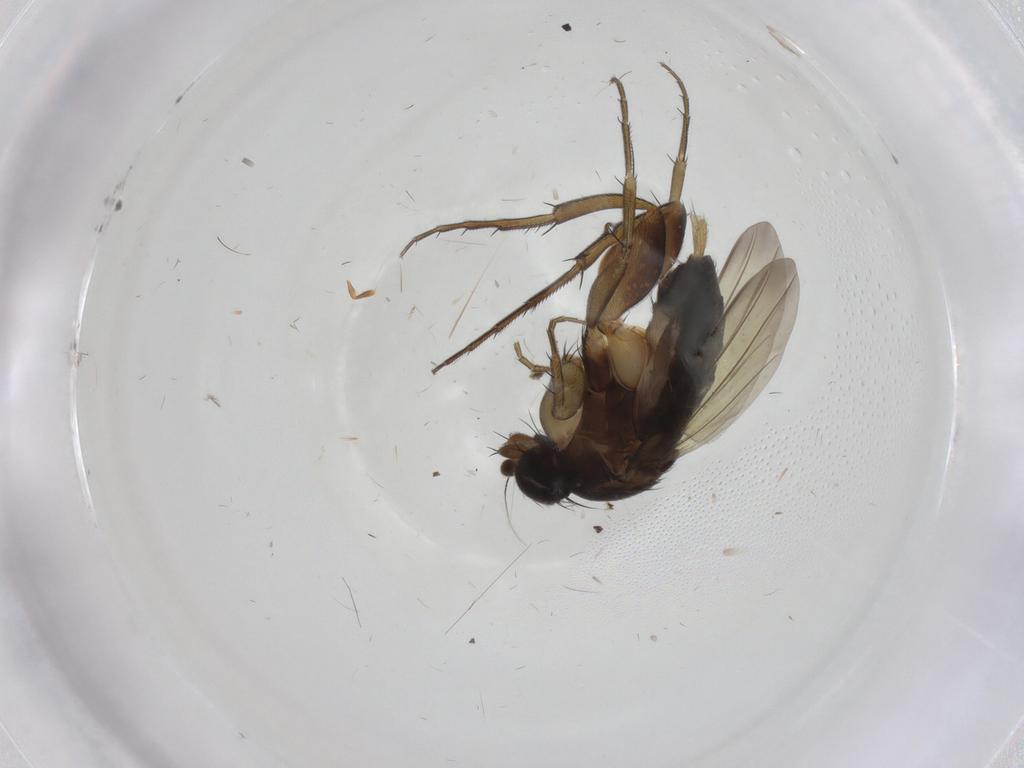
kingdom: Animalia
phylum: Arthropoda
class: Insecta
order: Diptera
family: Phoridae
